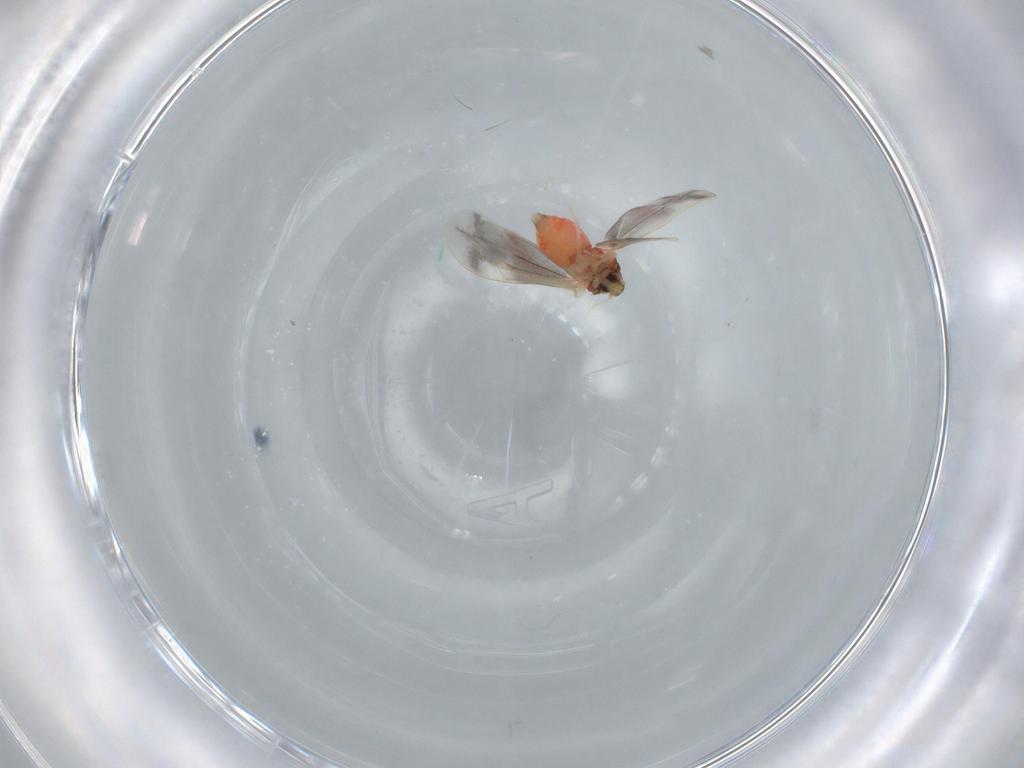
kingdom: Animalia
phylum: Arthropoda
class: Insecta
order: Hemiptera
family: Aleyrodidae
